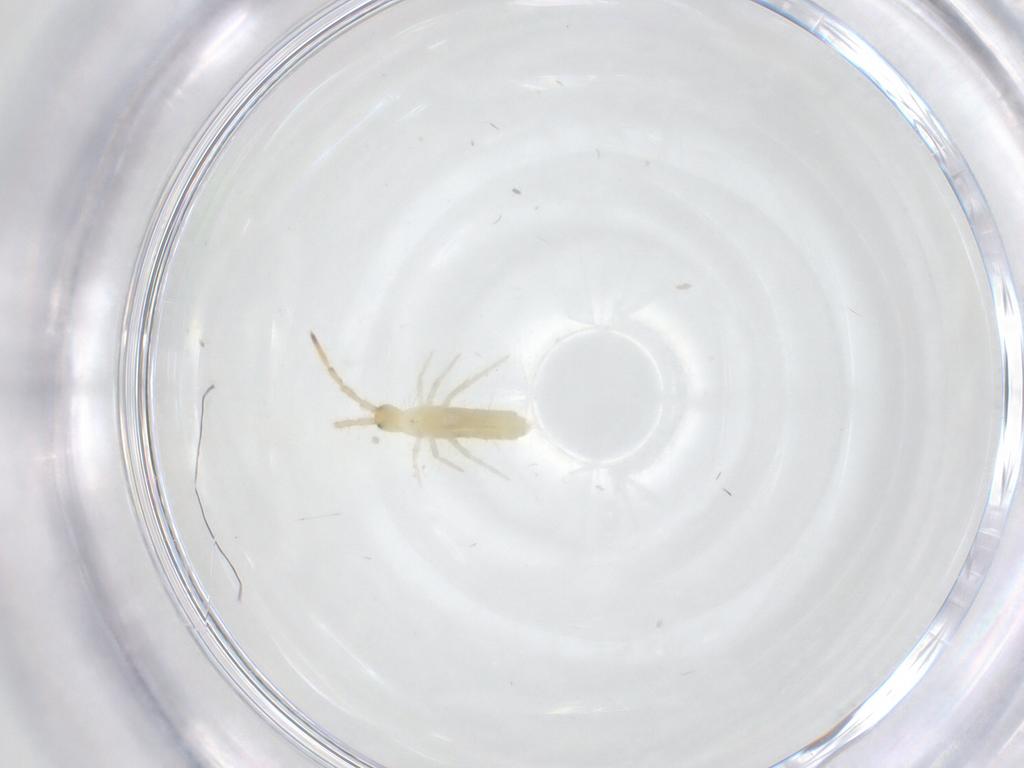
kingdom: Animalia
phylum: Arthropoda
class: Collembola
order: Entomobryomorpha
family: Entomobryidae
